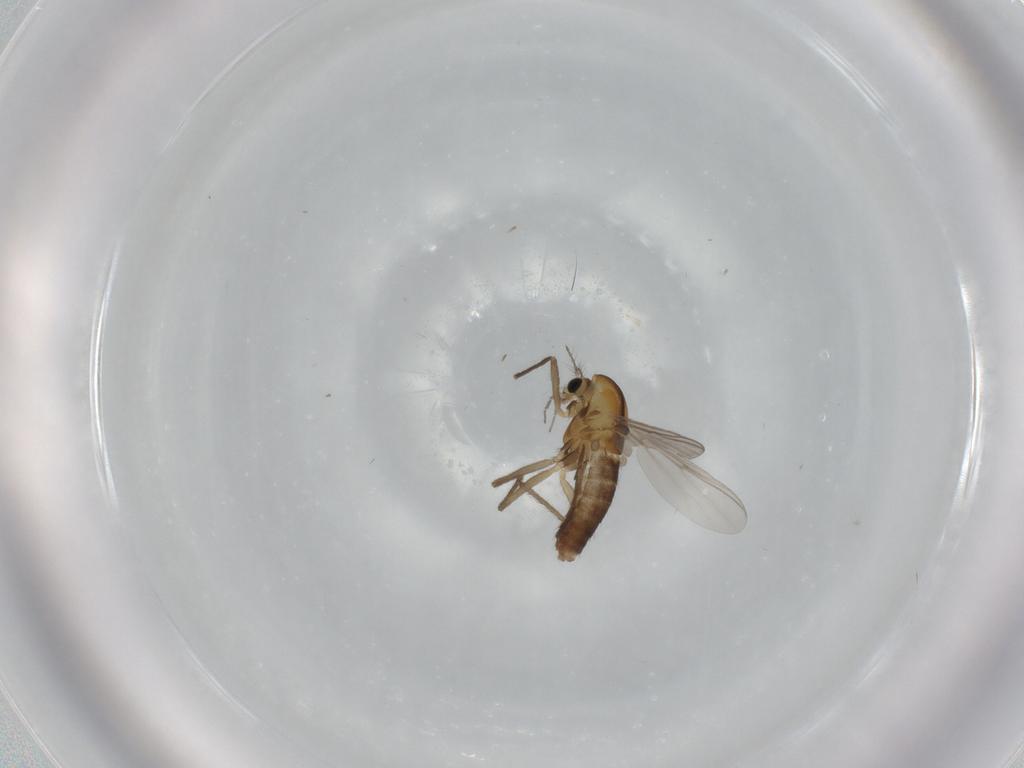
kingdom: Animalia
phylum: Arthropoda
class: Insecta
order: Diptera
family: Chironomidae
